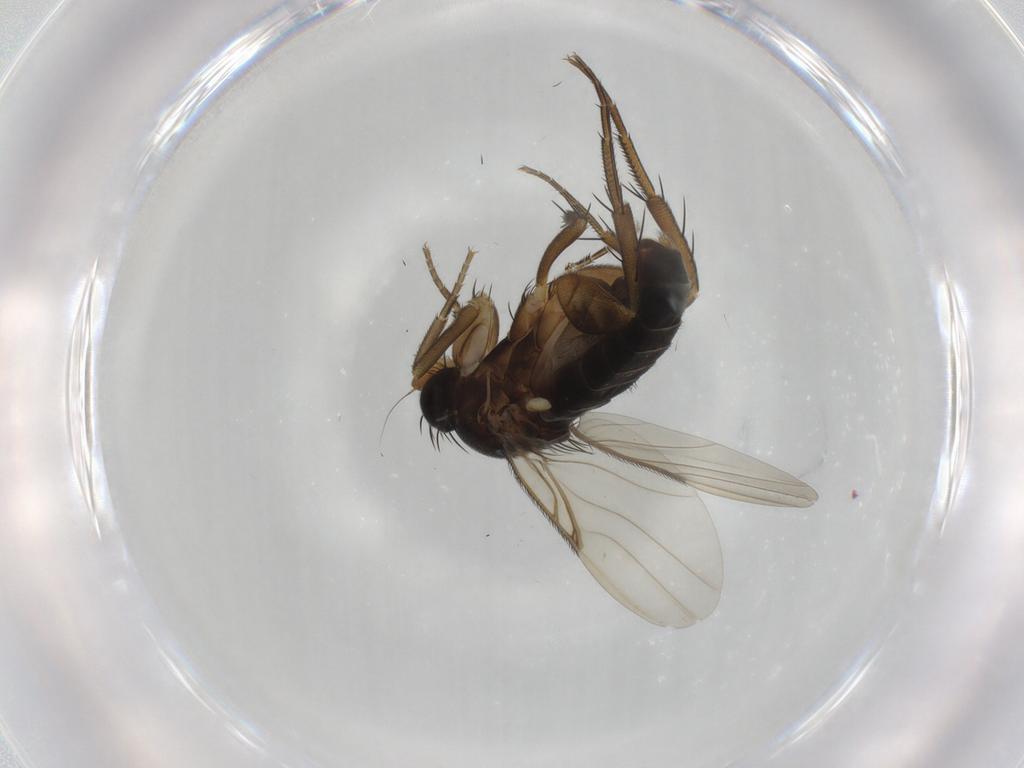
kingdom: Animalia
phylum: Arthropoda
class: Insecta
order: Diptera
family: Phoridae
